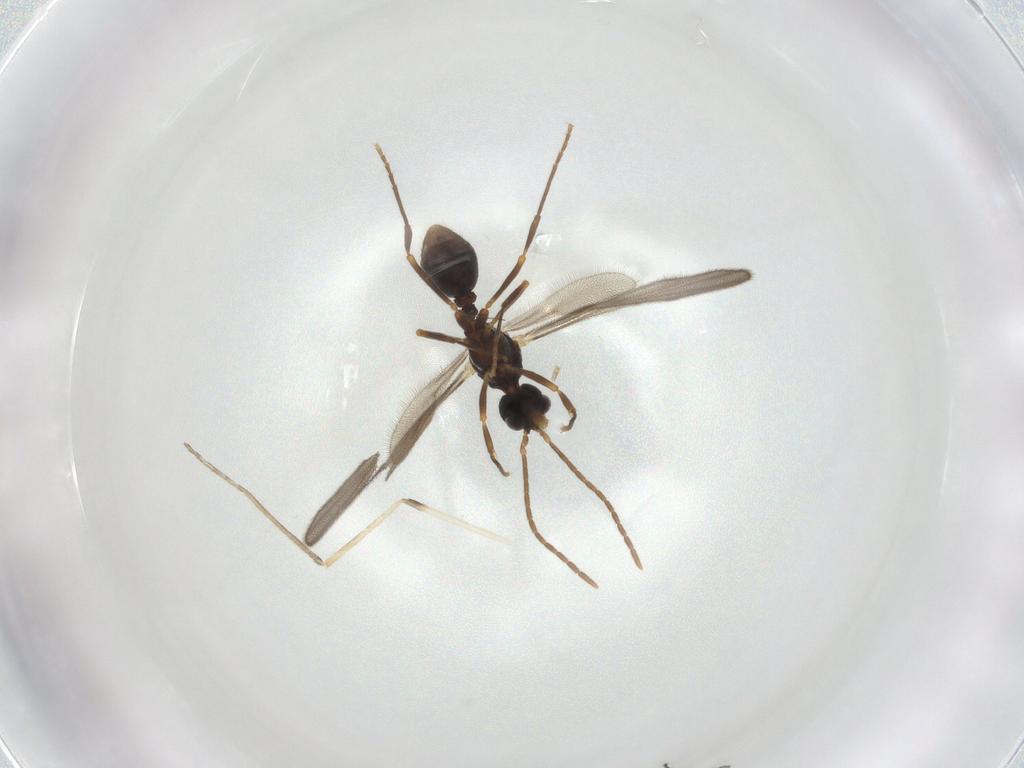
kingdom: Animalia
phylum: Arthropoda
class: Insecta
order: Hymenoptera
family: Formicidae
